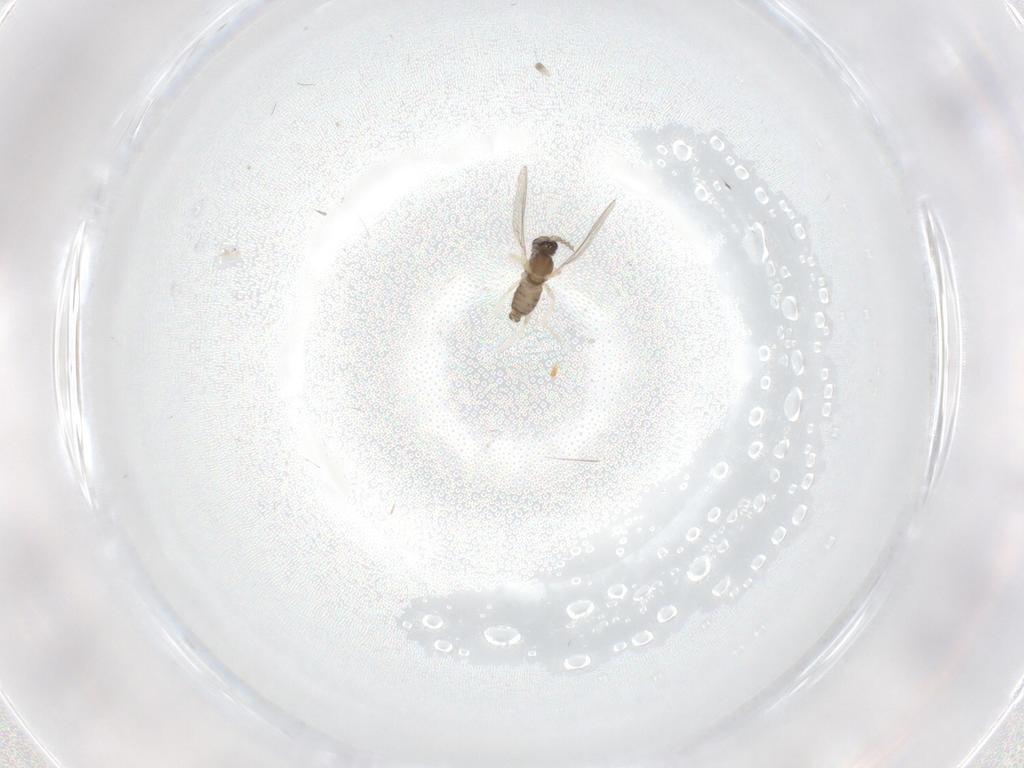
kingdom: Animalia
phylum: Arthropoda
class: Insecta
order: Diptera
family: Cecidomyiidae
